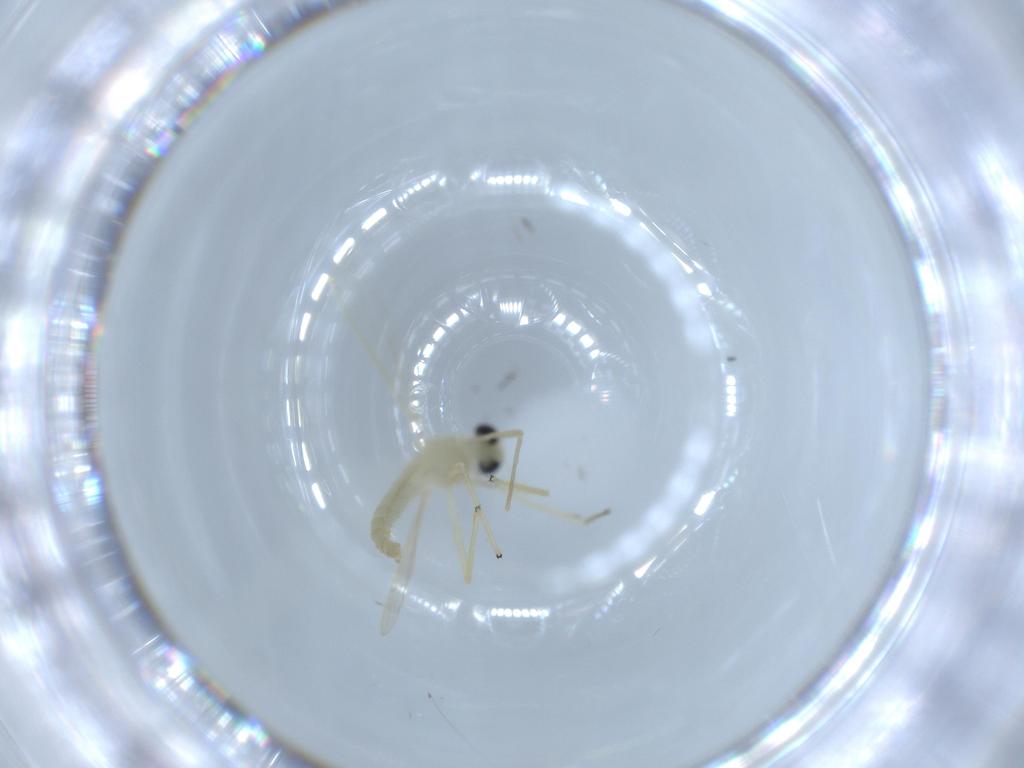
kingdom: Animalia
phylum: Arthropoda
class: Insecta
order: Diptera
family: Chironomidae
